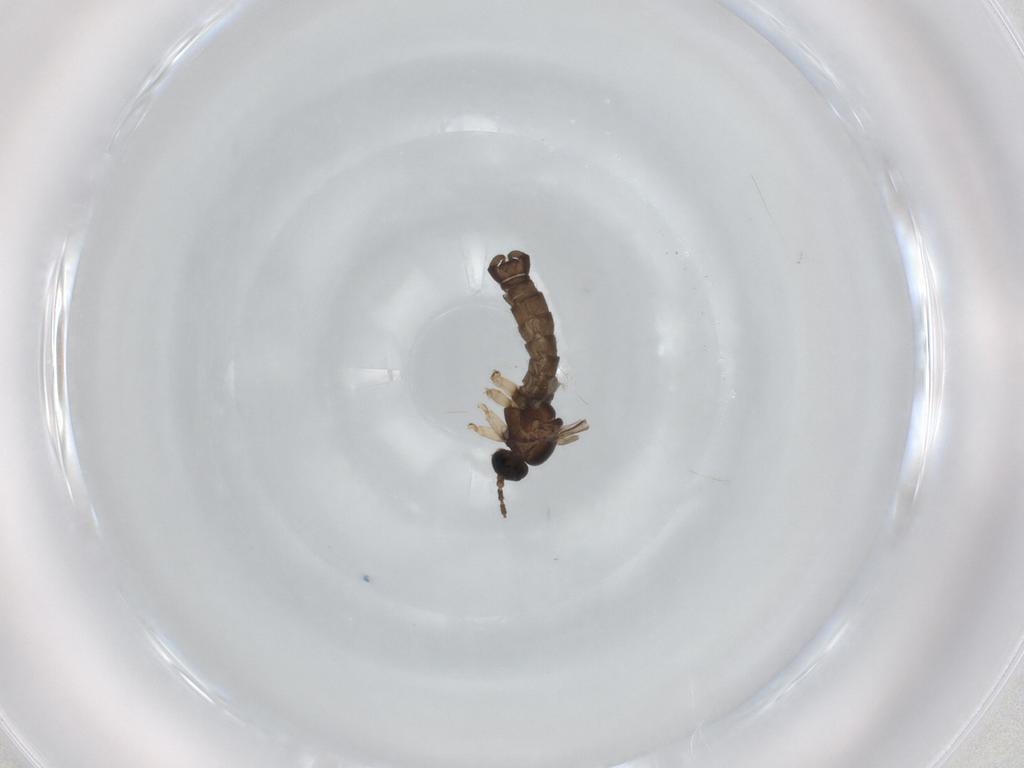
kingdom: Animalia
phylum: Arthropoda
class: Insecta
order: Diptera
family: Sciaridae
